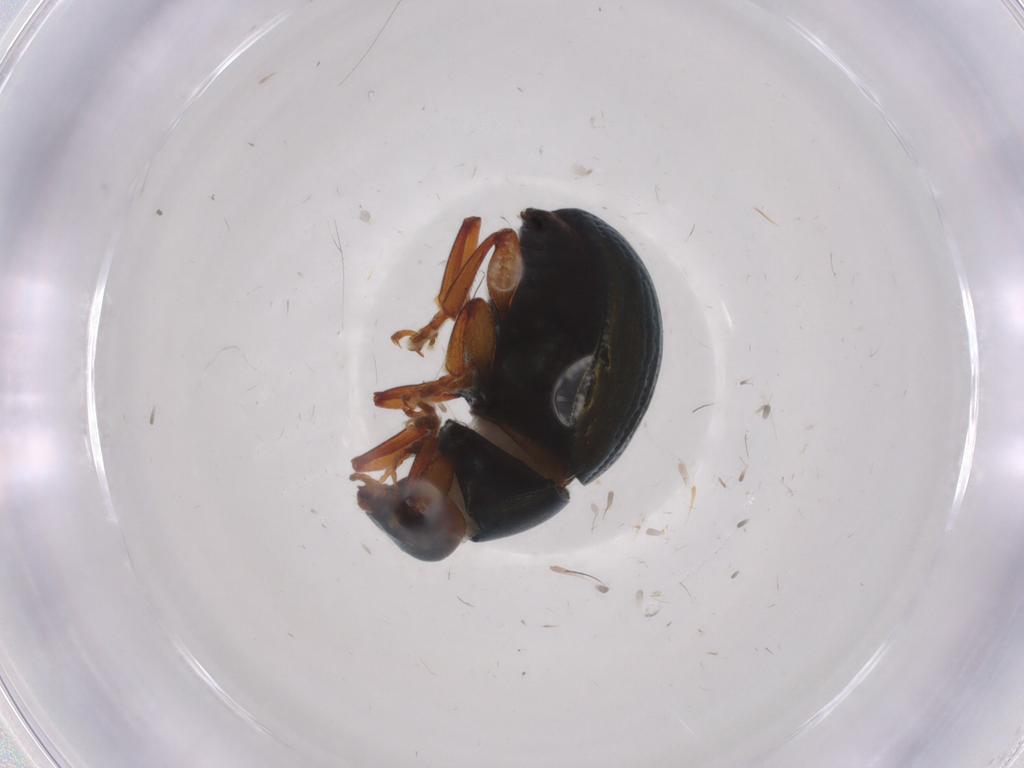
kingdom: Animalia
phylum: Arthropoda
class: Insecta
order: Coleoptera
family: Chrysomelidae
